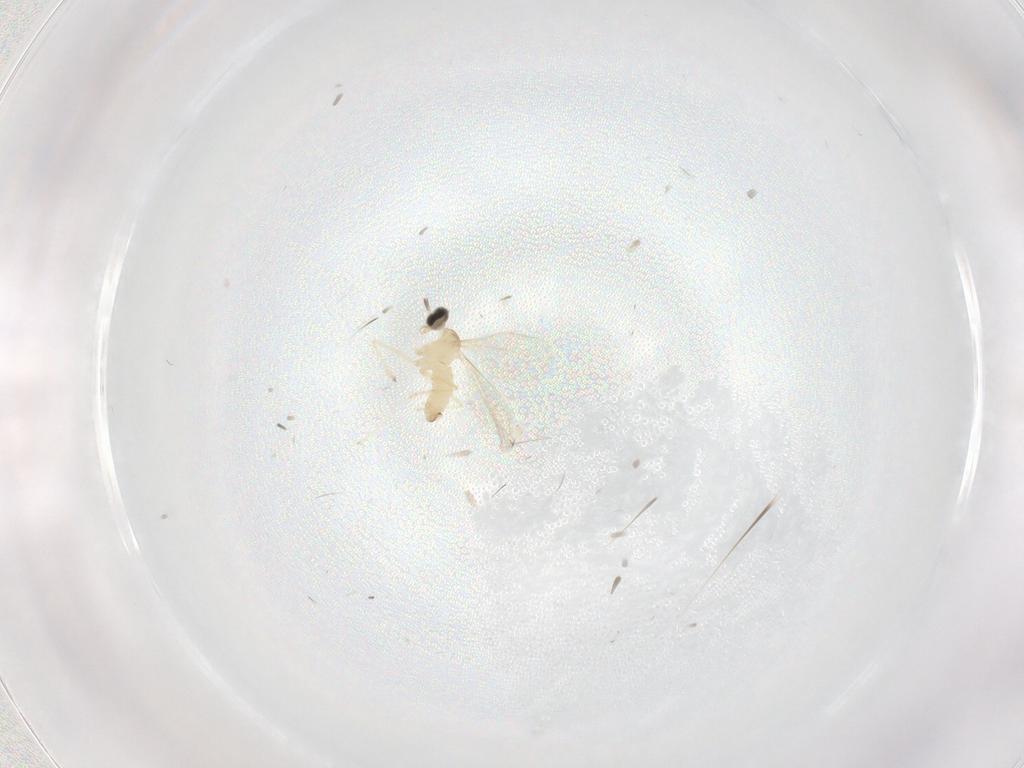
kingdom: Animalia
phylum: Arthropoda
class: Insecta
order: Diptera
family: Cecidomyiidae
